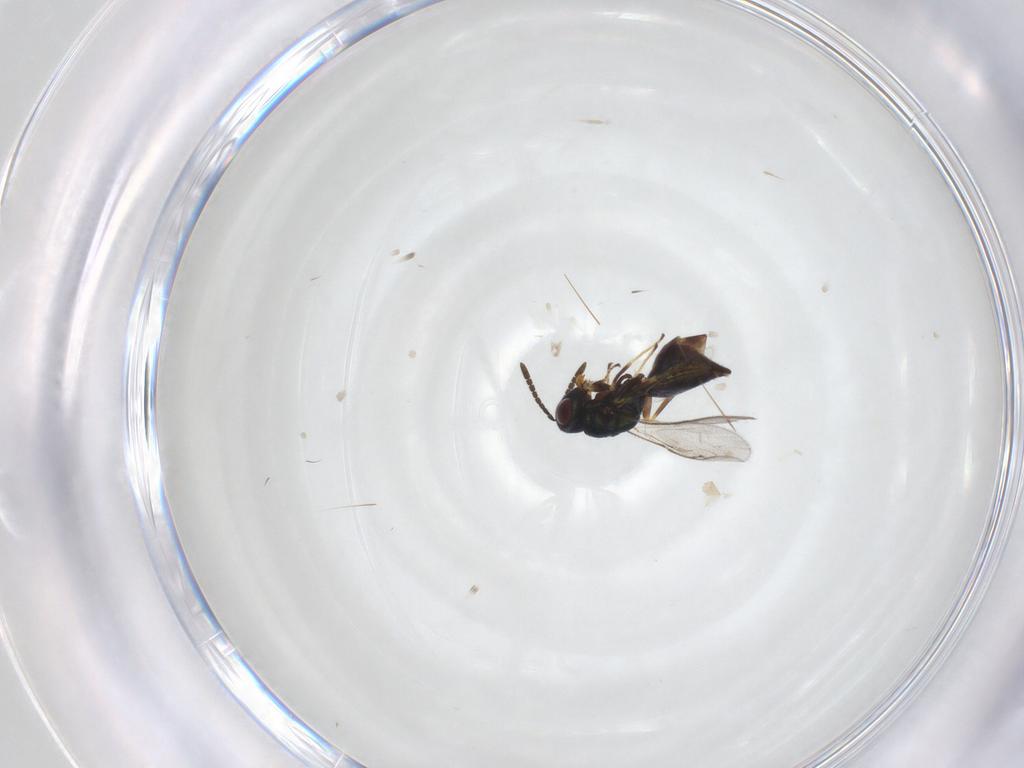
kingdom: Animalia
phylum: Arthropoda
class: Insecta
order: Hymenoptera
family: Pteromalidae
